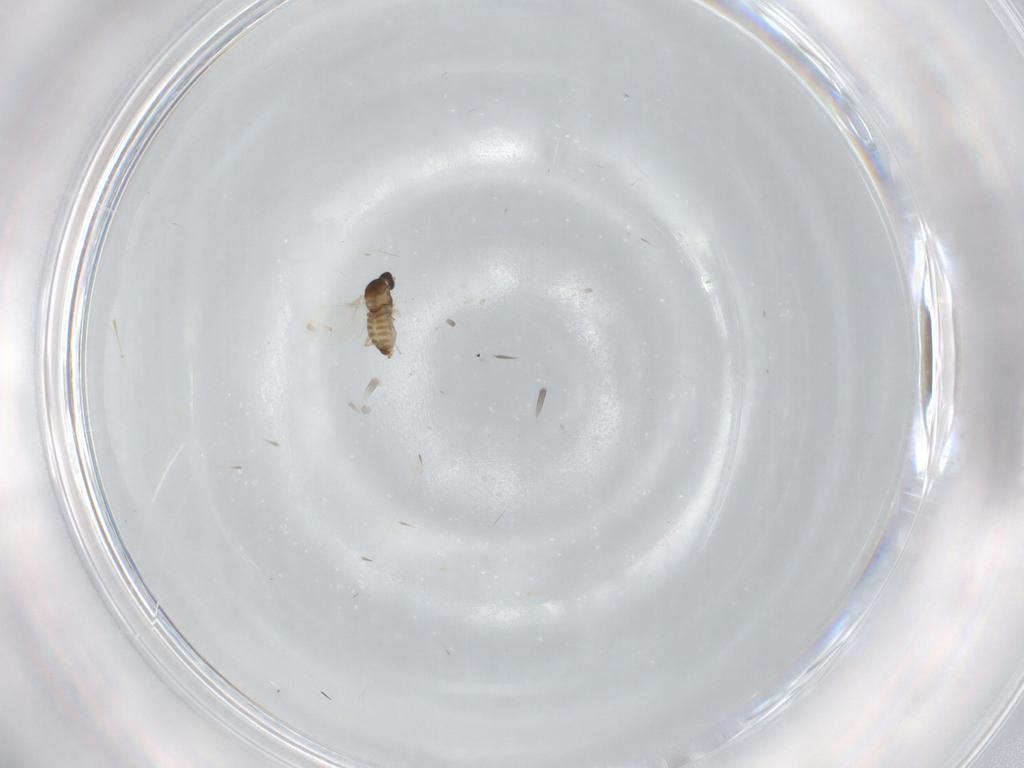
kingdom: Animalia
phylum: Arthropoda
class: Insecta
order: Diptera
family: Cecidomyiidae
